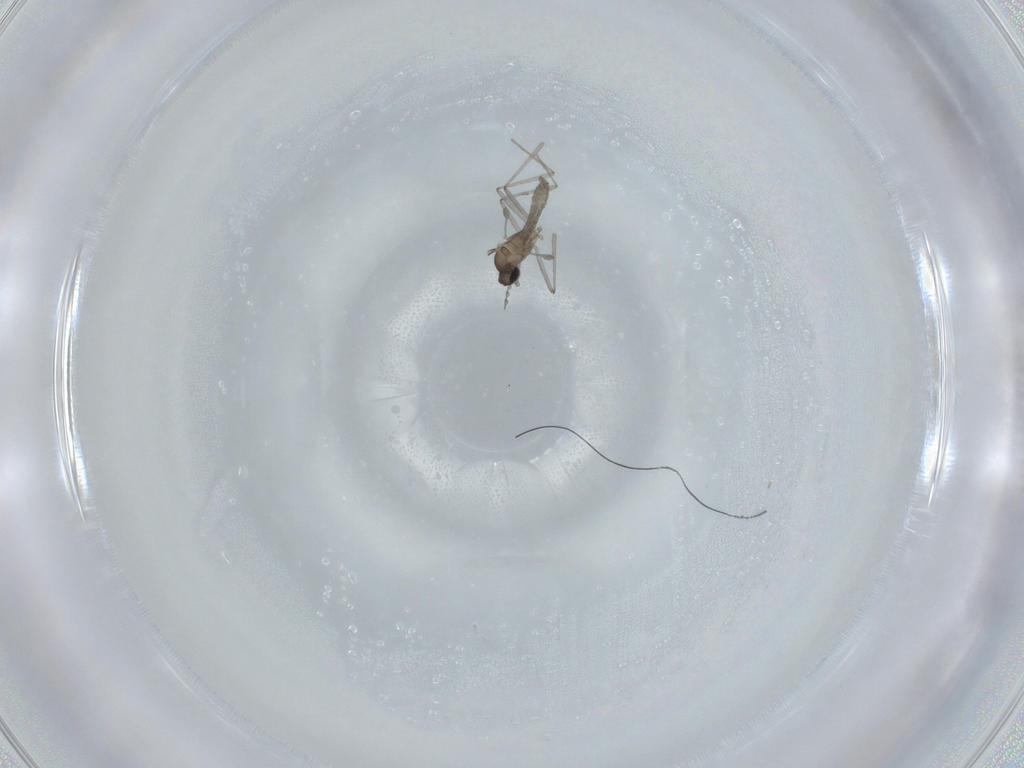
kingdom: Animalia
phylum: Arthropoda
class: Insecta
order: Diptera
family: Cecidomyiidae
